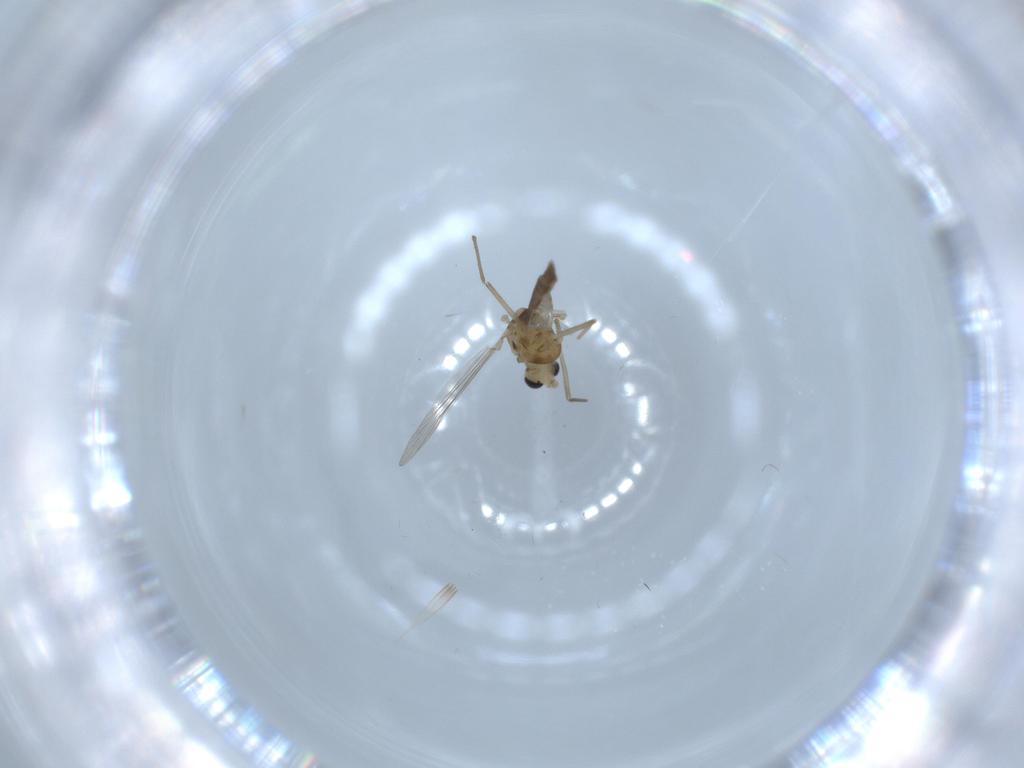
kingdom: Animalia
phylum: Arthropoda
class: Insecta
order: Diptera
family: Chironomidae
